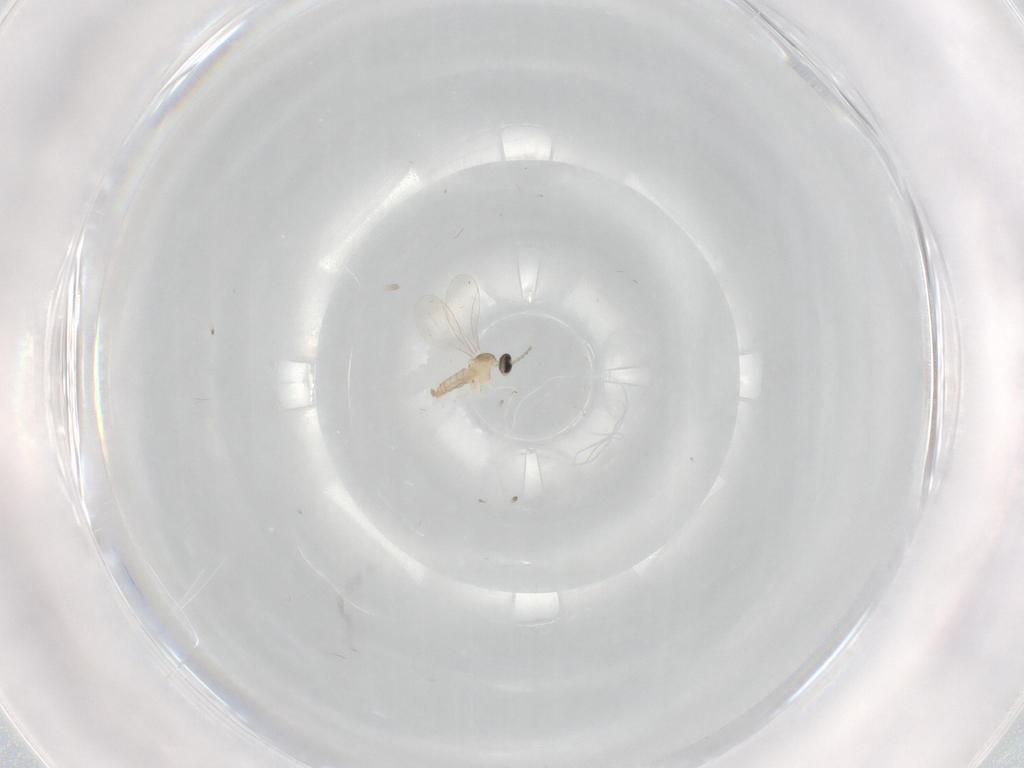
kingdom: Animalia
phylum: Arthropoda
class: Insecta
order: Diptera
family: Cecidomyiidae
